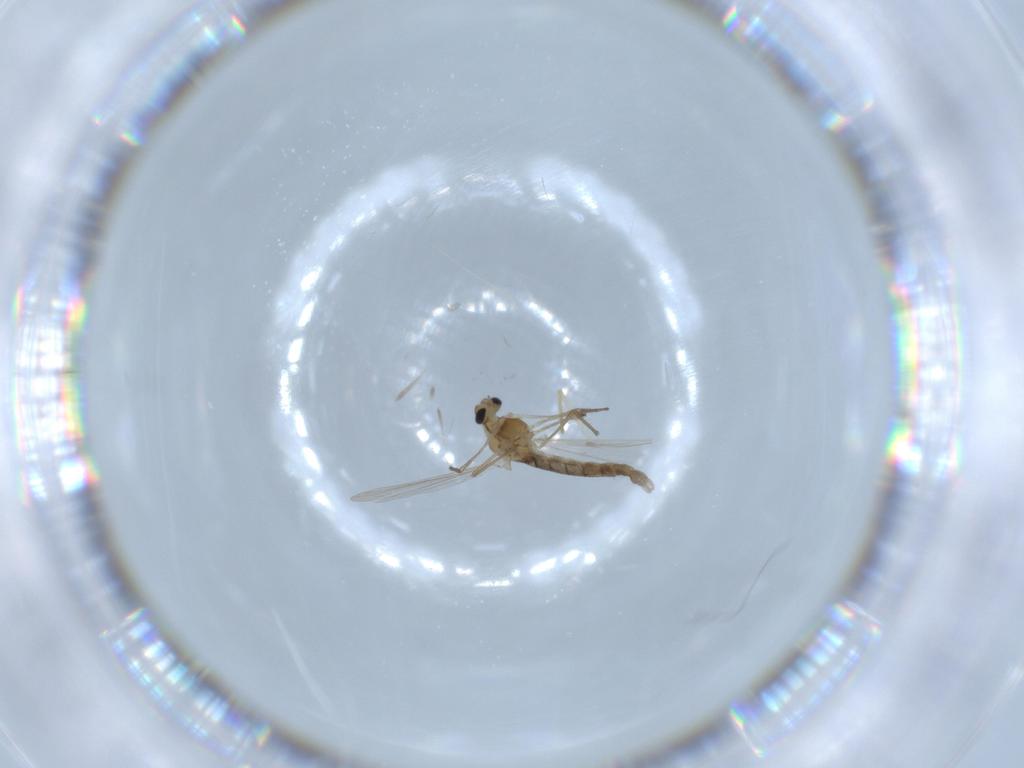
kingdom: Animalia
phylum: Arthropoda
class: Insecta
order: Diptera
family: Chironomidae
